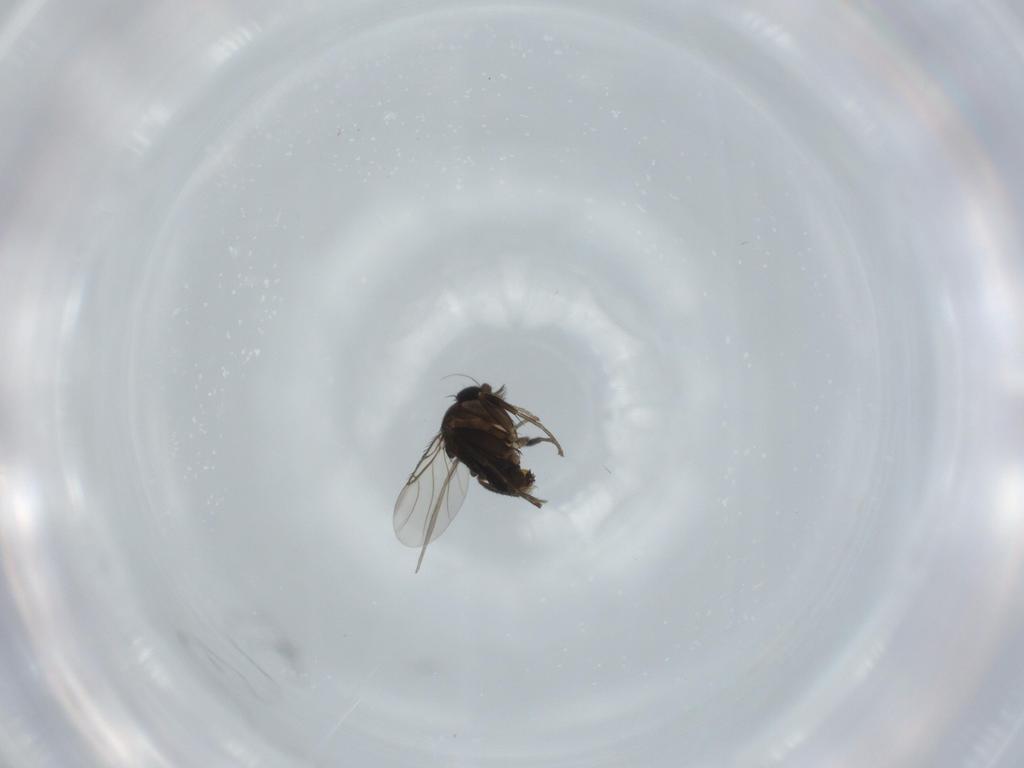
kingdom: Animalia
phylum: Arthropoda
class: Insecta
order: Diptera
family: Phoridae
